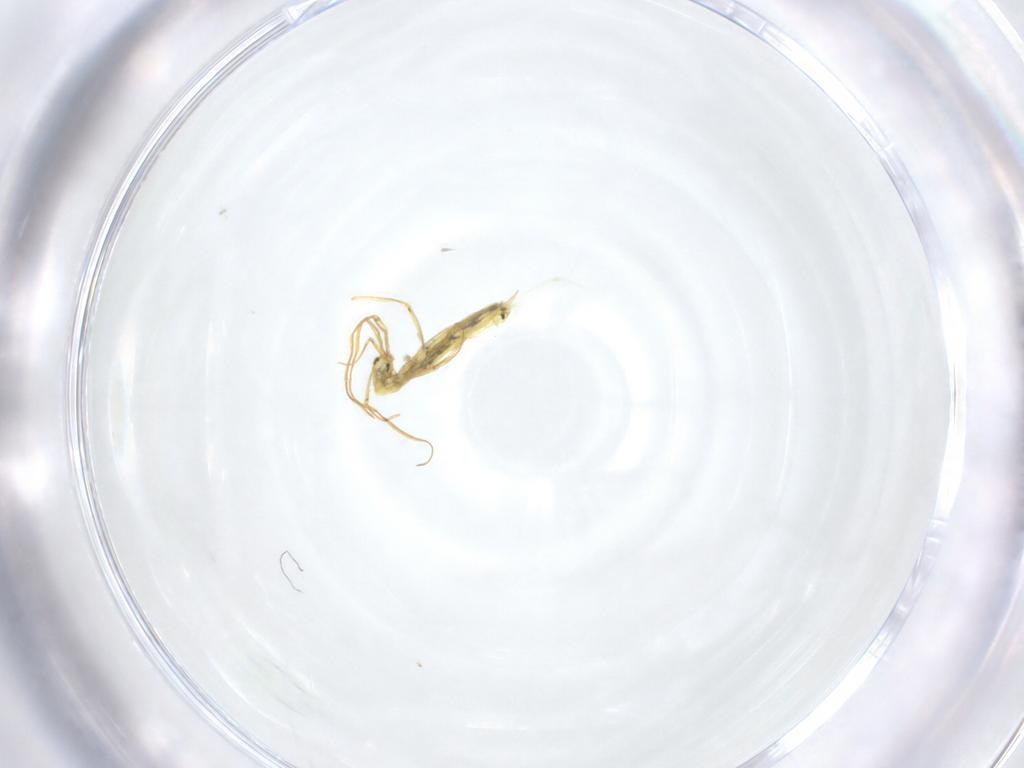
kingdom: Animalia
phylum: Arthropoda
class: Collembola
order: Entomobryomorpha
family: Entomobryidae
